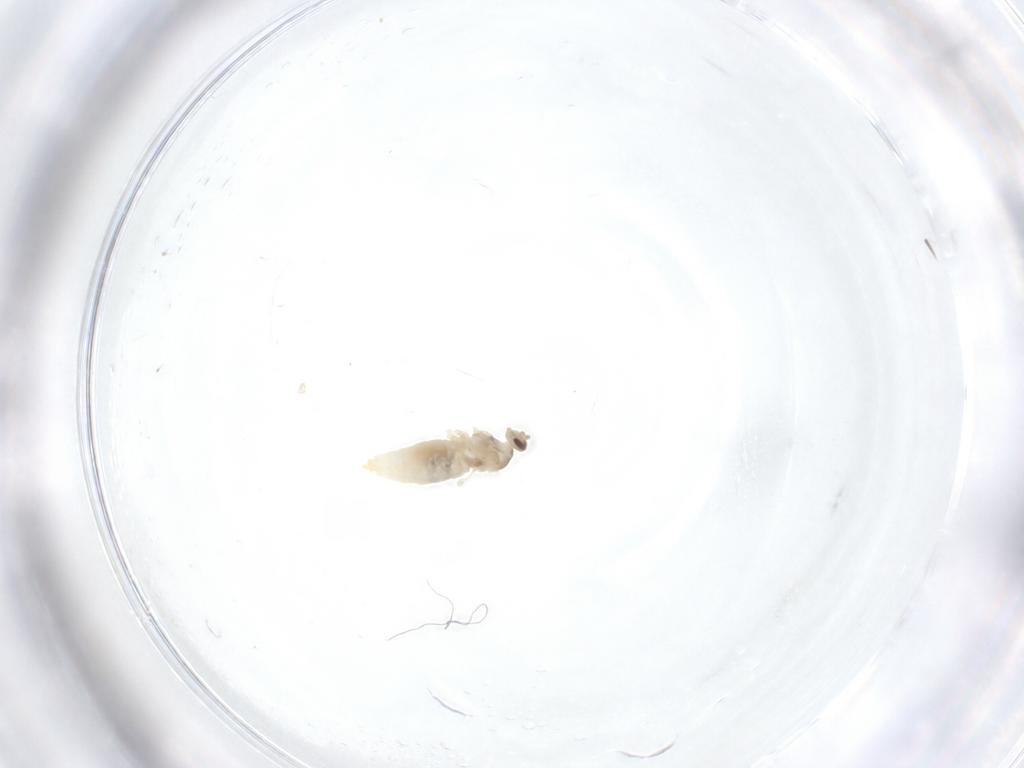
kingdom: Animalia
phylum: Arthropoda
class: Insecta
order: Diptera
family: Cecidomyiidae
